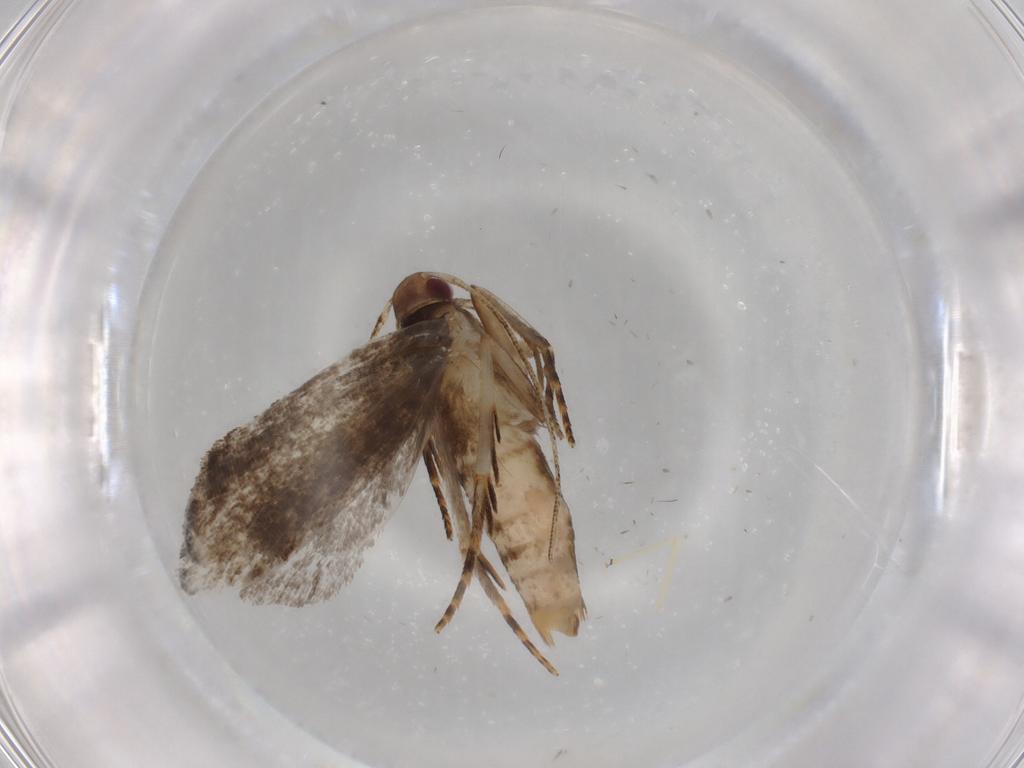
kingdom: Animalia
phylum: Arthropoda
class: Insecta
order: Lepidoptera
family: Gelechiidae
